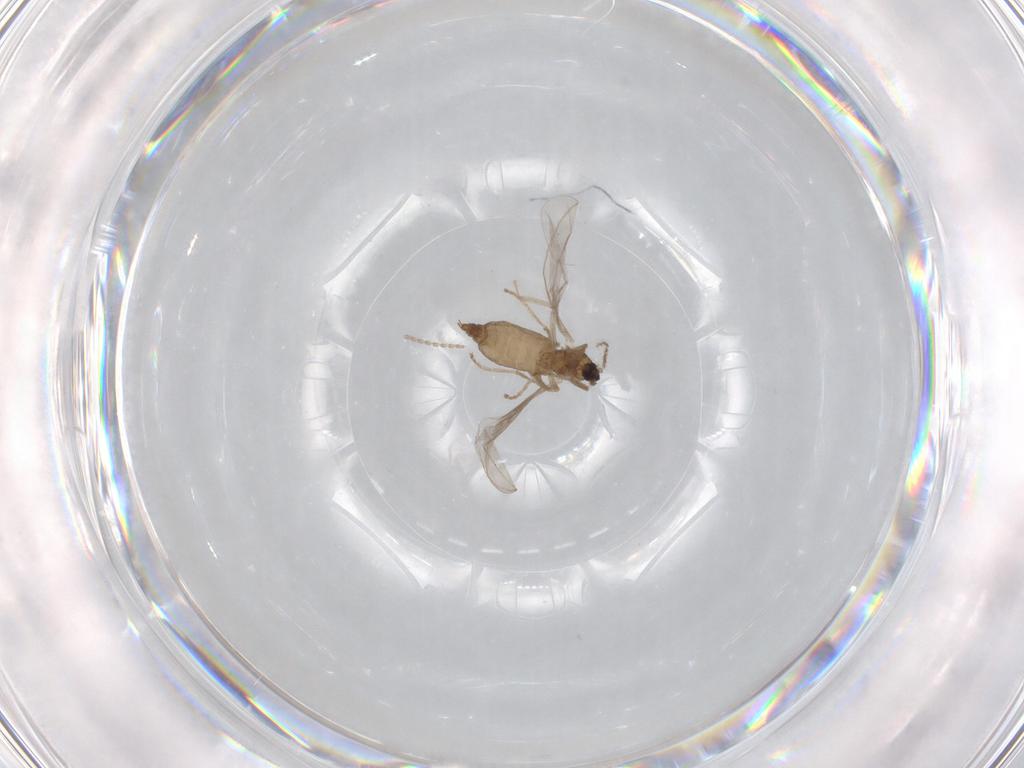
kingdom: Animalia
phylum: Arthropoda
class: Insecta
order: Diptera
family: Cecidomyiidae
